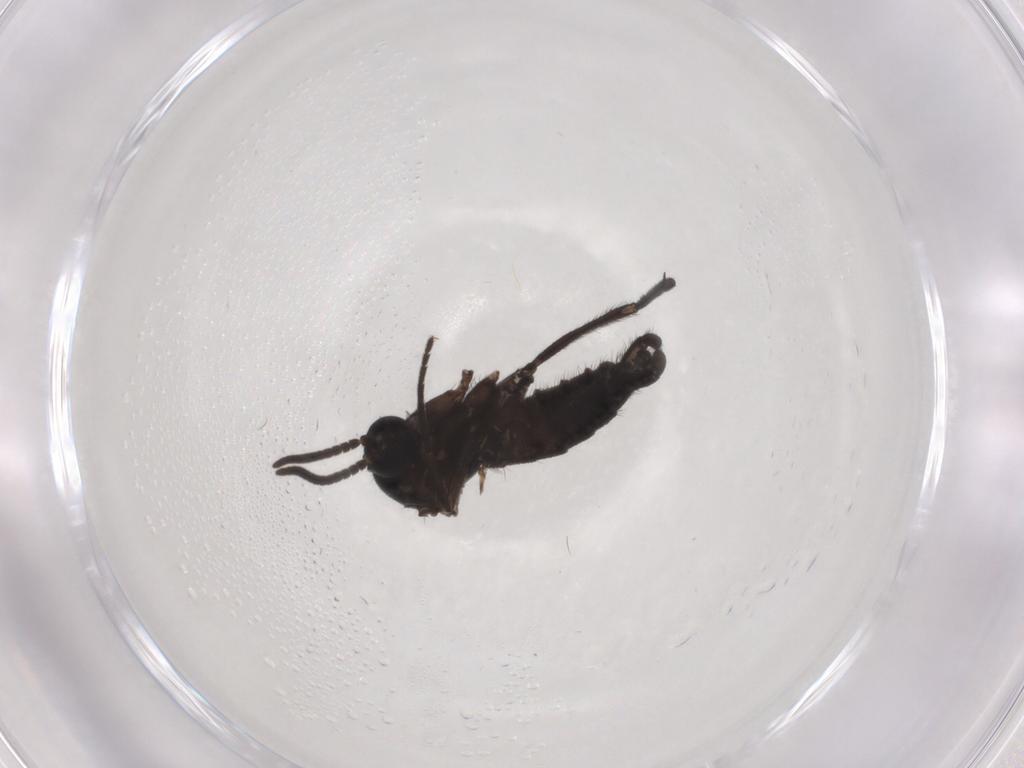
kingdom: Animalia
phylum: Arthropoda
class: Insecta
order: Diptera
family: Sciaridae
